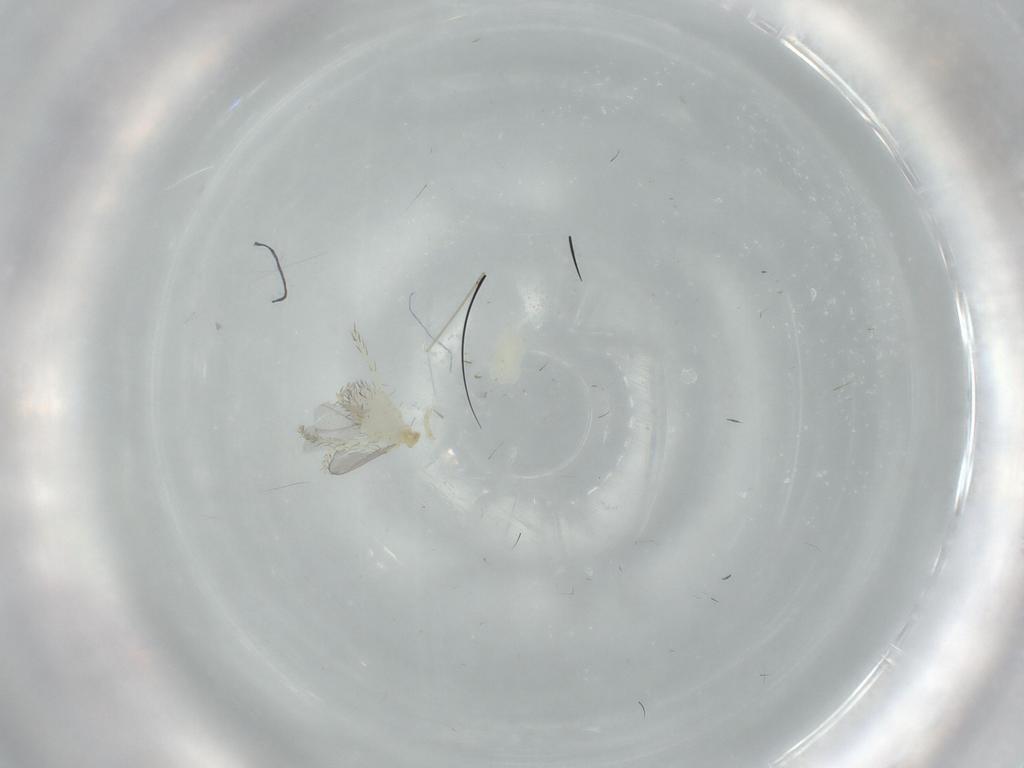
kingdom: Animalia
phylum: Arthropoda
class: Arachnida
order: Trombidiformes
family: Erythraeidae
